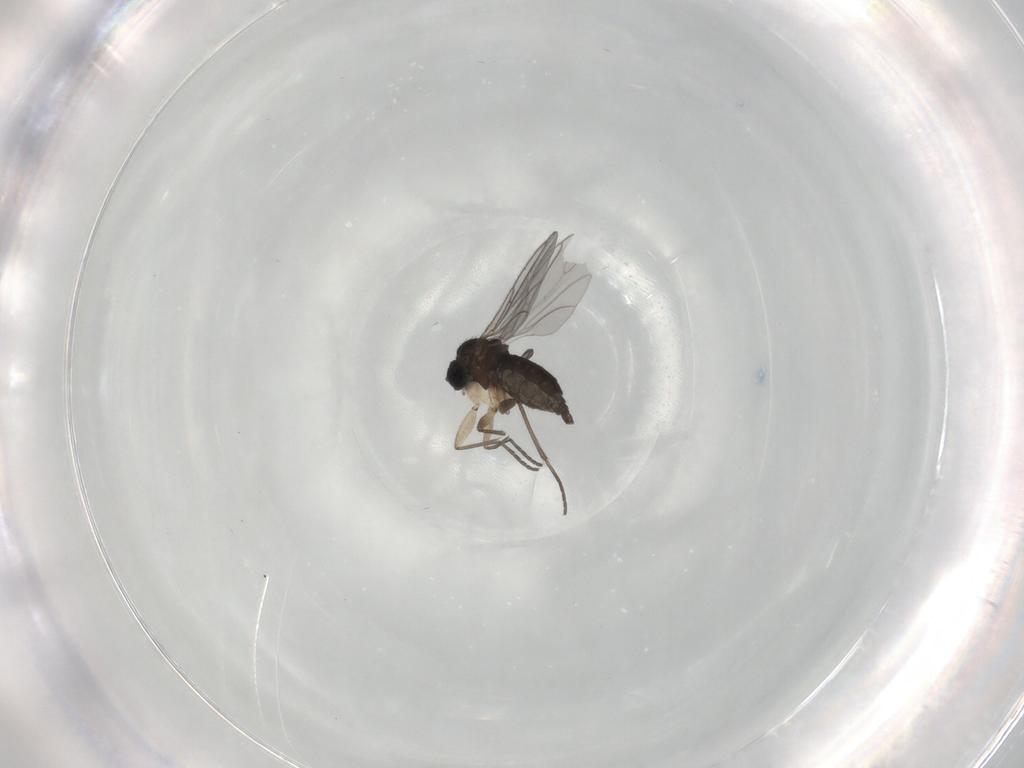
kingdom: Animalia
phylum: Arthropoda
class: Insecta
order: Diptera
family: Sciaridae
